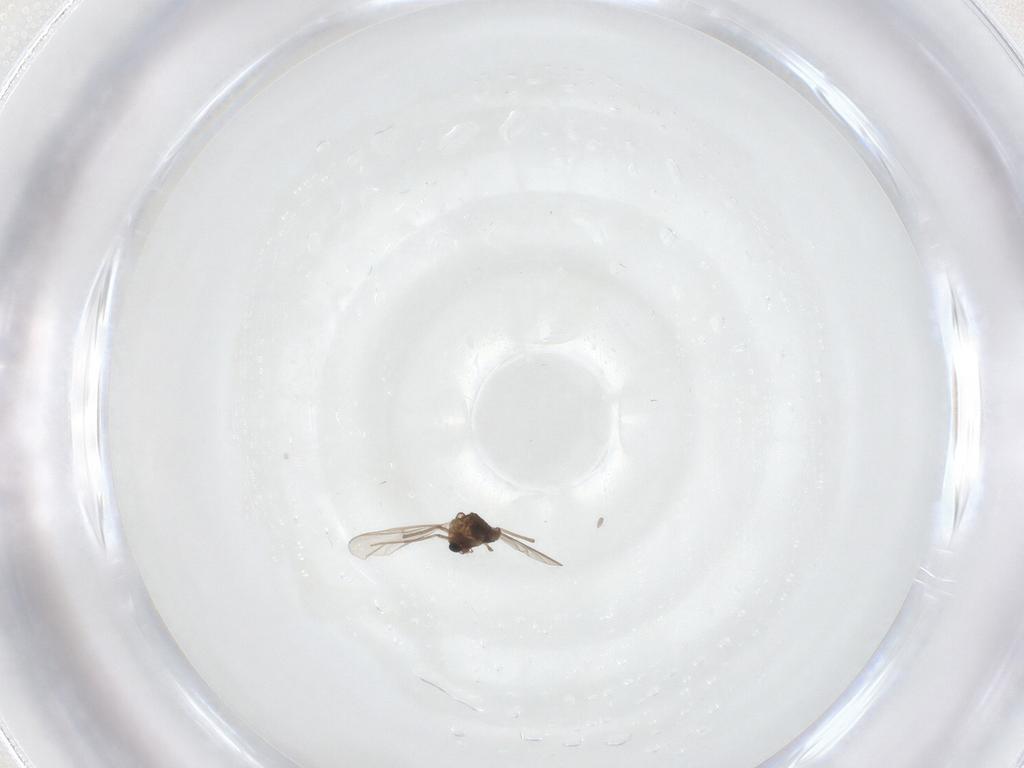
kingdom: Animalia
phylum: Arthropoda
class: Insecta
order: Diptera
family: Chironomidae
